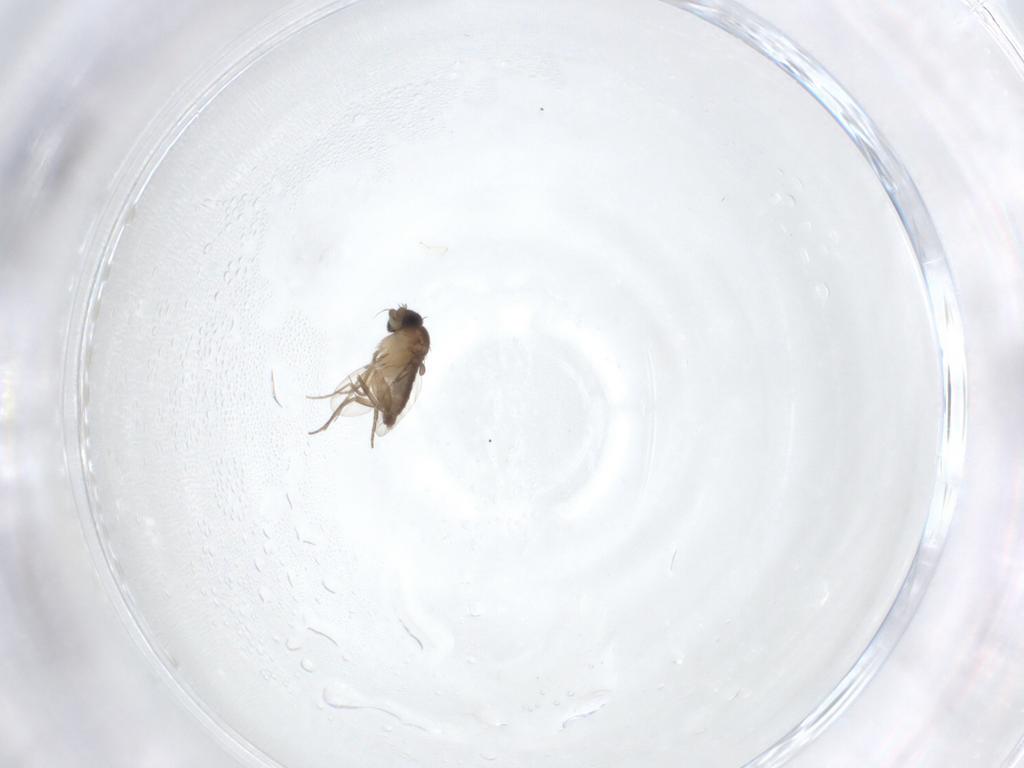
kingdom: Animalia
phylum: Arthropoda
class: Insecta
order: Diptera
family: Phoridae
